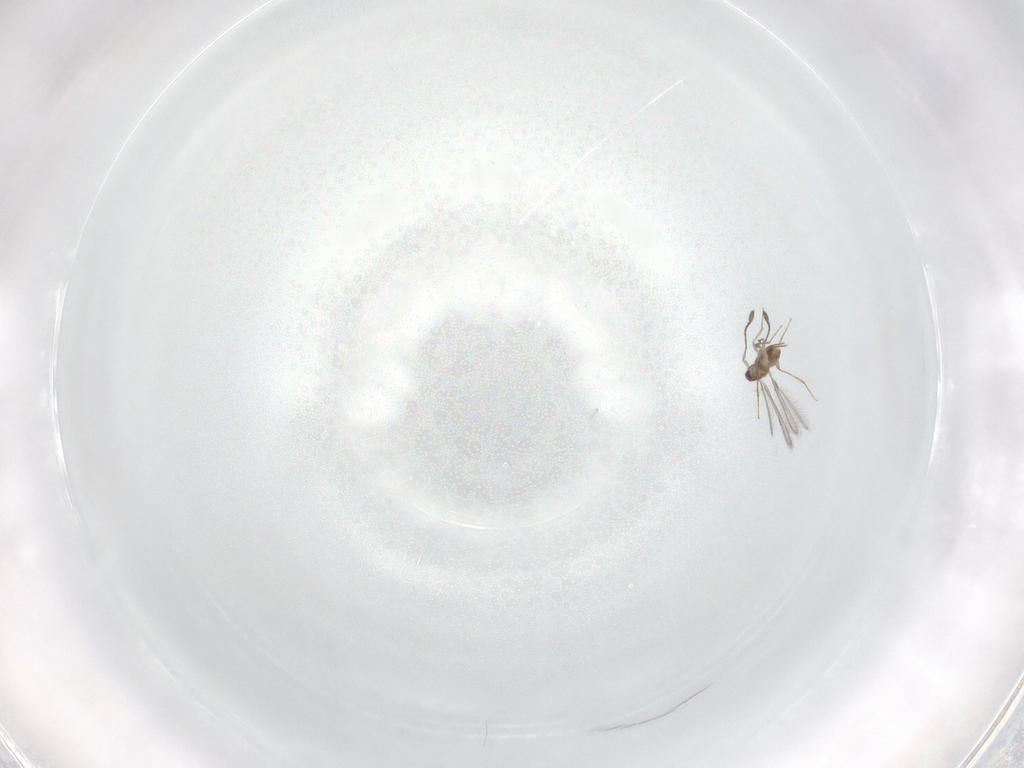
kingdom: Animalia
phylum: Arthropoda
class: Insecta
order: Hymenoptera
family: Mymaridae
